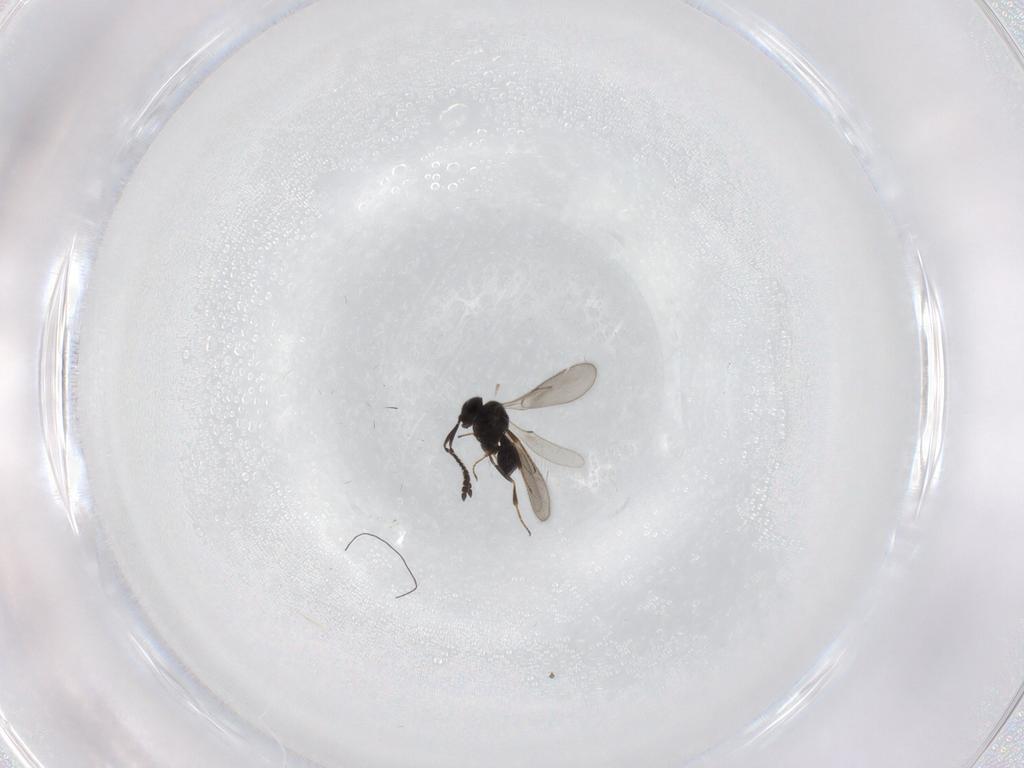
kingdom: Animalia
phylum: Arthropoda
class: Insecta
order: Hymenoptera
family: Scelionidae
